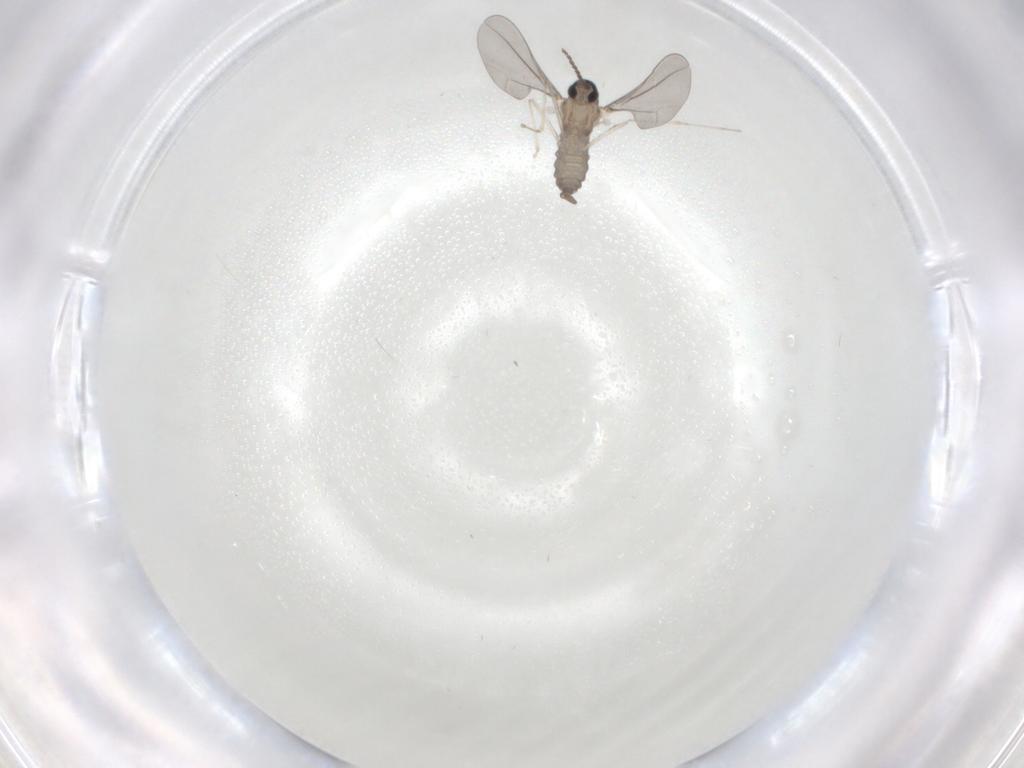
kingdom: Animalia
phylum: Arthropoda
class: Insecta
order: Diptera
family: Cecidomyiidae
